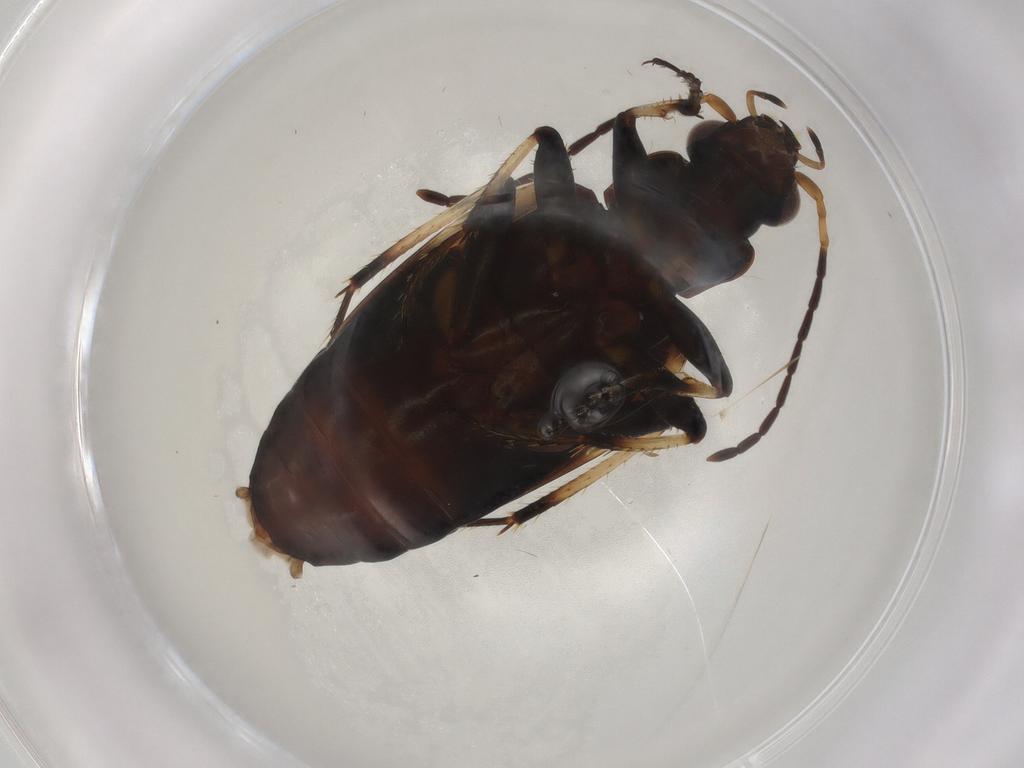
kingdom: Animalia
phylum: Arthropoda
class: Insecta
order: Coleoptera
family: Carabidae
